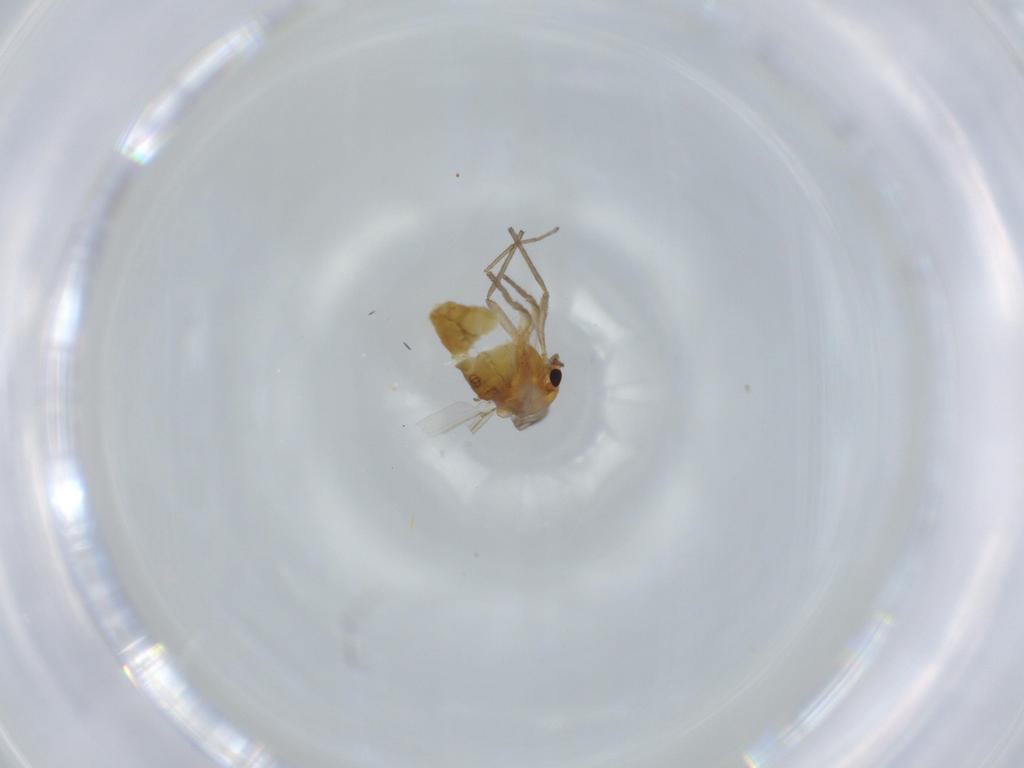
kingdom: Animalia
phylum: Arthropoda
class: Insecta
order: Diptera
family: Chironomidae
